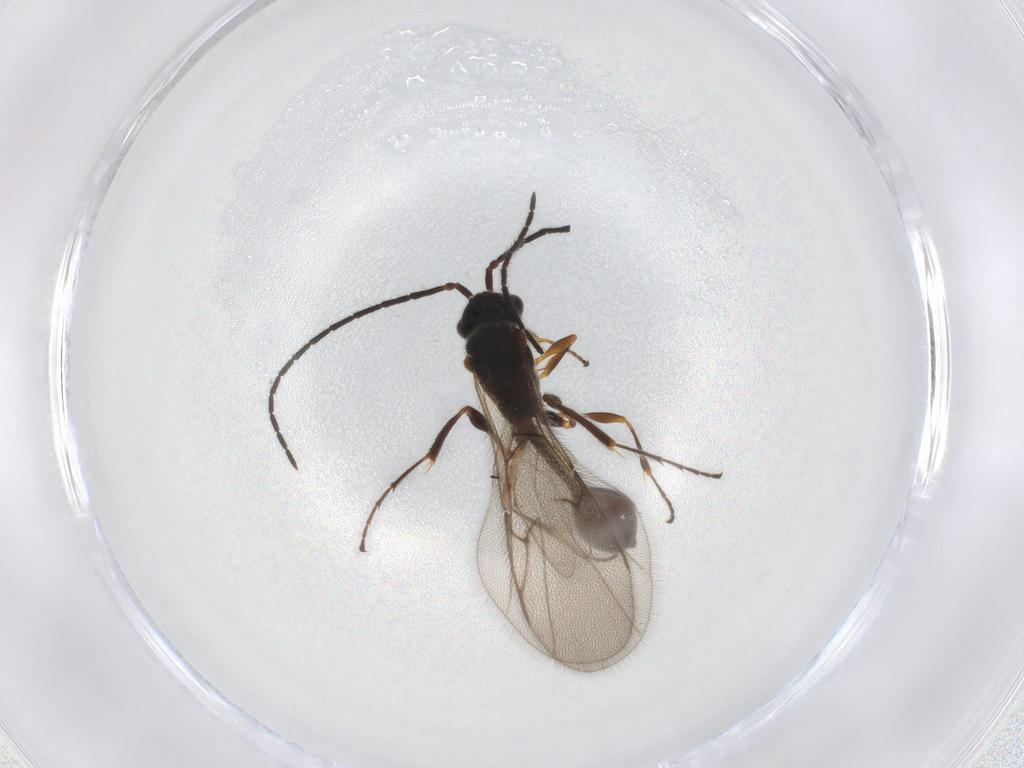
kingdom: Animalia
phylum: Arthropoda
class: Insecta
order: Hymenoptera
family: Diapriidae
